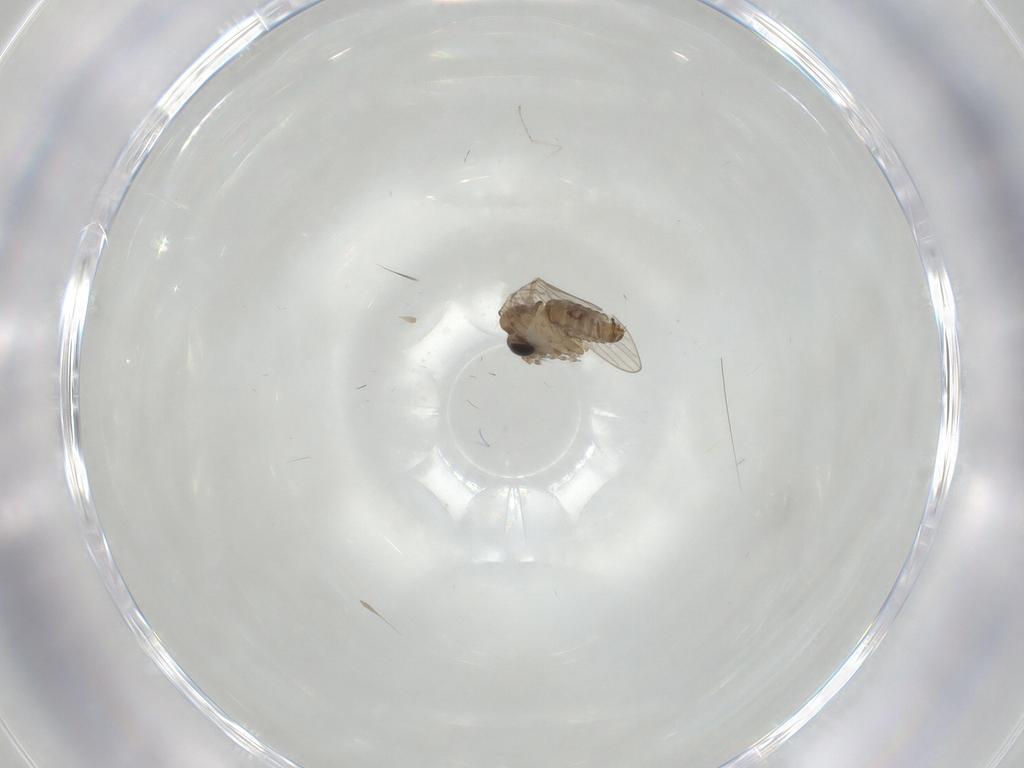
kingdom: Animalia
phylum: Arthropoda
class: Insecta
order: Diptera
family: Cecidomyiidae
